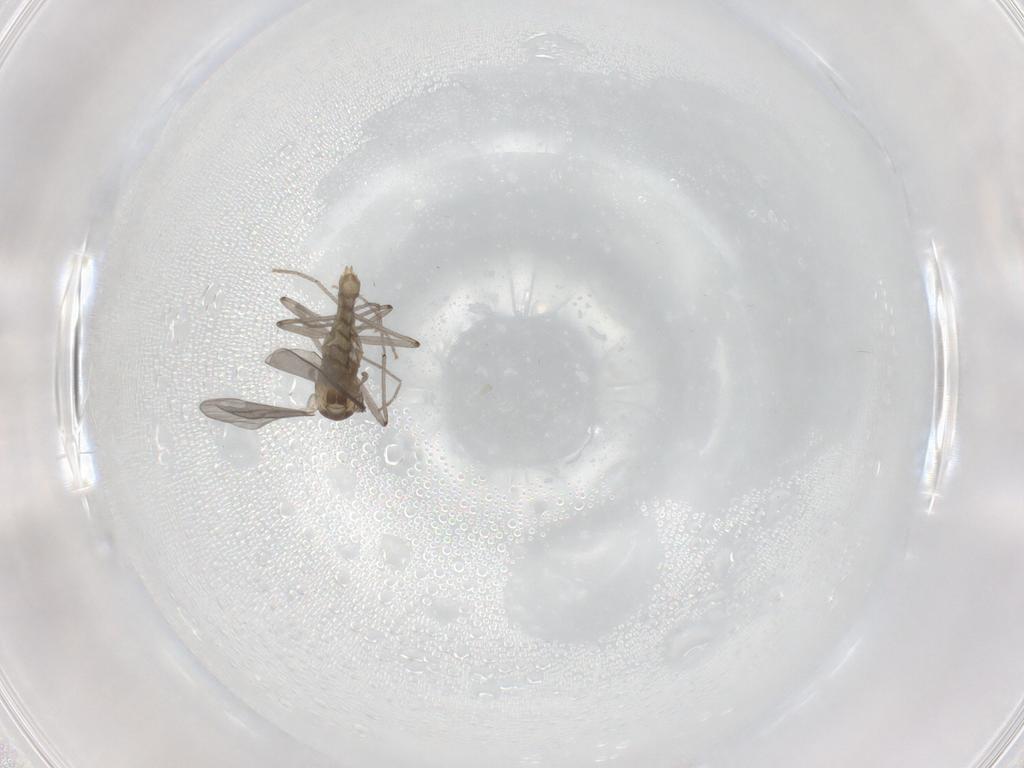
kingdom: Animalia
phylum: Arthropoda
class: Insecta
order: Diptera
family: Chironomidae
